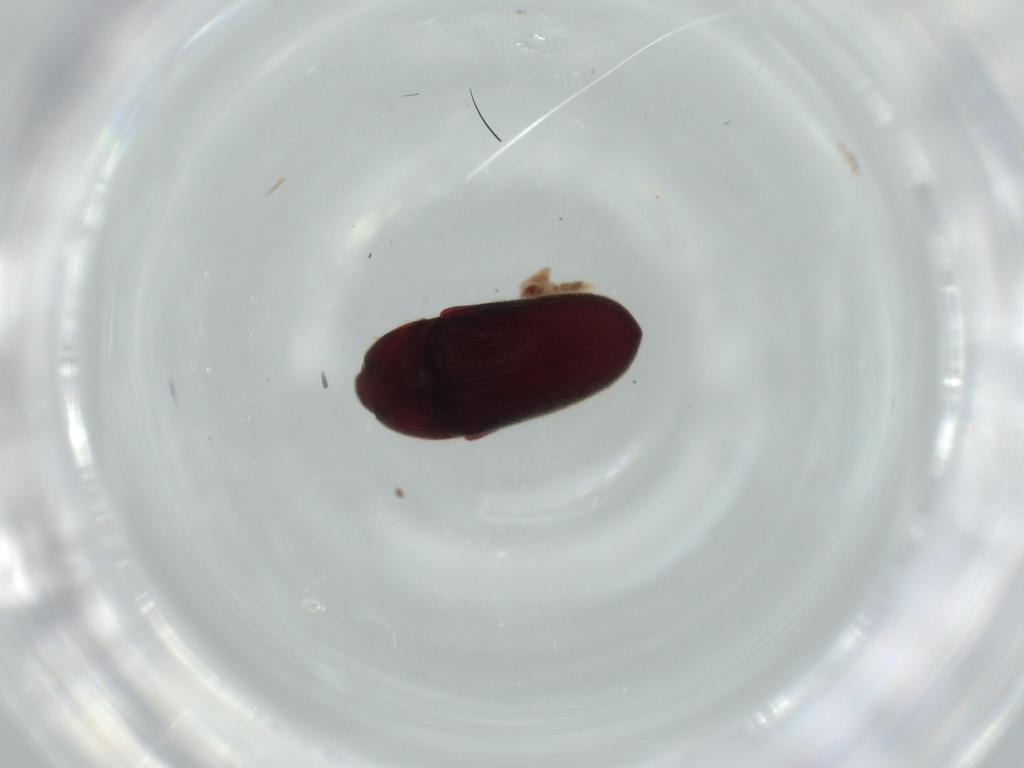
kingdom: Animalia
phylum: Arthropoda
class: Insecta
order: Coleoptera
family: Throscidae
